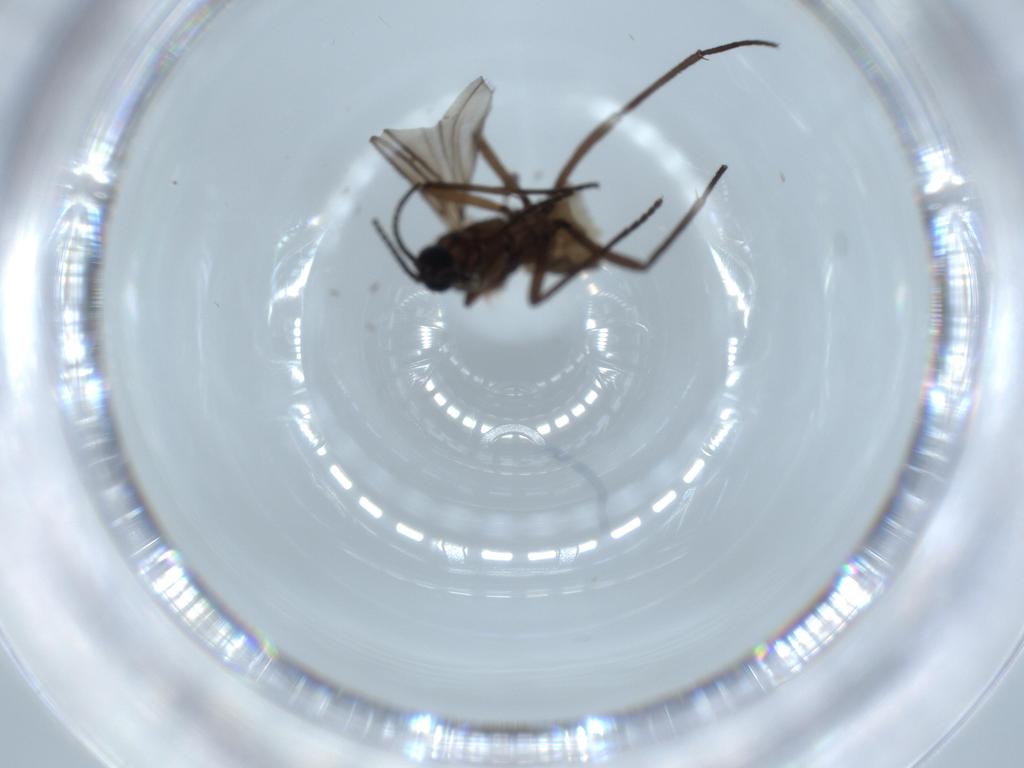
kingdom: Animalia
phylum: Arthropoda
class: Insecta
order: Diptera
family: Sciaridae
